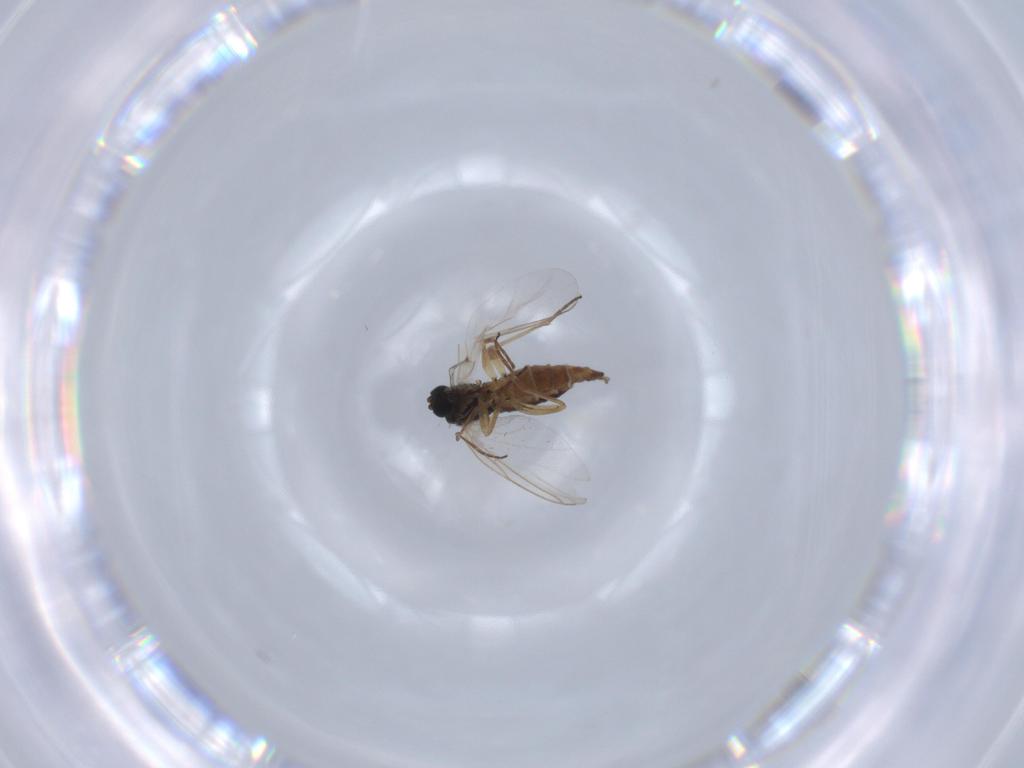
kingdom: Animalia
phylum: Arthropoda
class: Insecta
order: Diptera
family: Sciaridae
